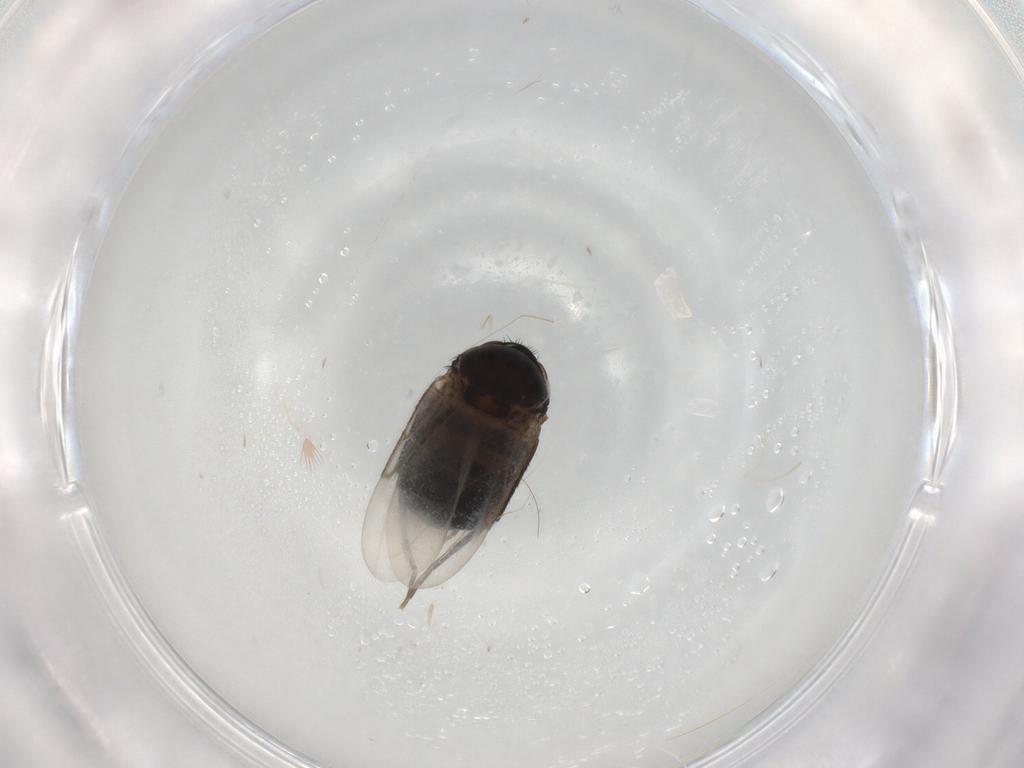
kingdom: Animalia
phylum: Arthropoda
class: Insecta
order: Diptera
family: Phoridae
